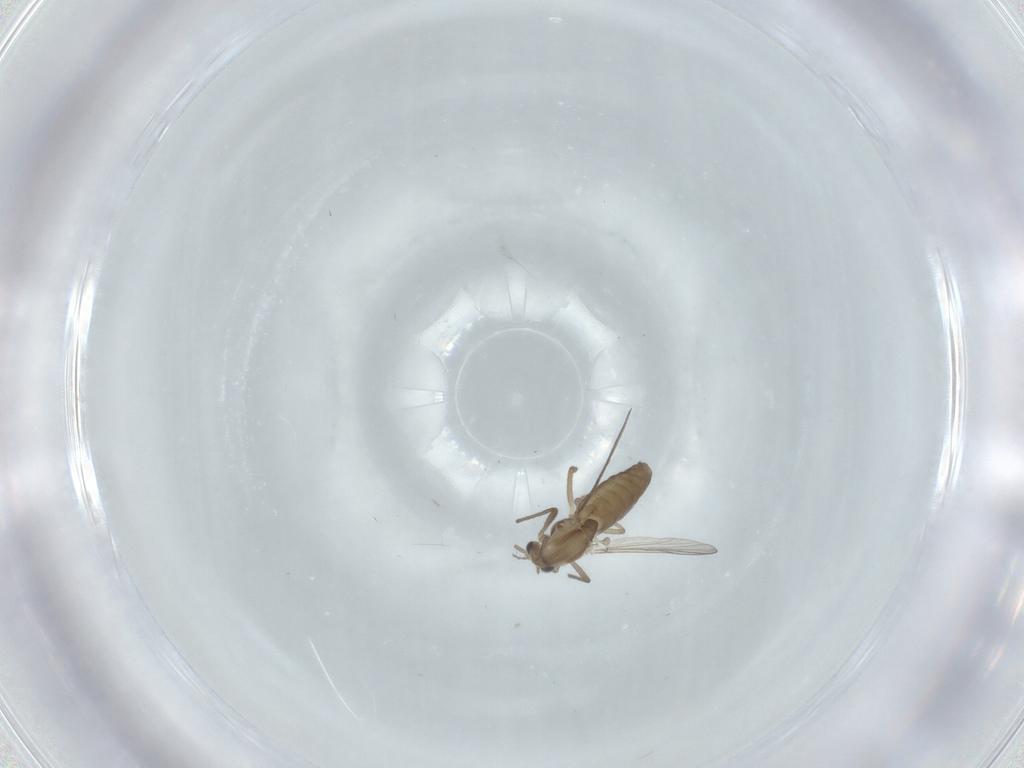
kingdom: Animalia
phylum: Arthropoda
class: Insecta
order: Diptera
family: Chironomidae
